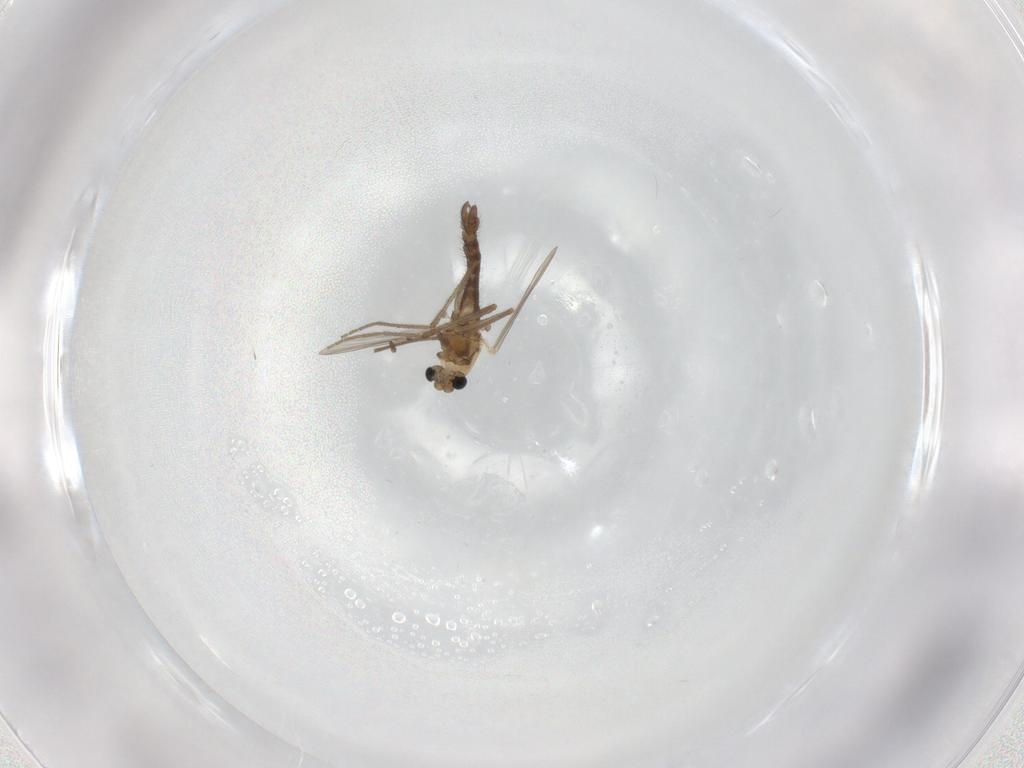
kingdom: Animalia
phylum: Arthropoda
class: Insecta
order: Diptera
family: Chironomidae
